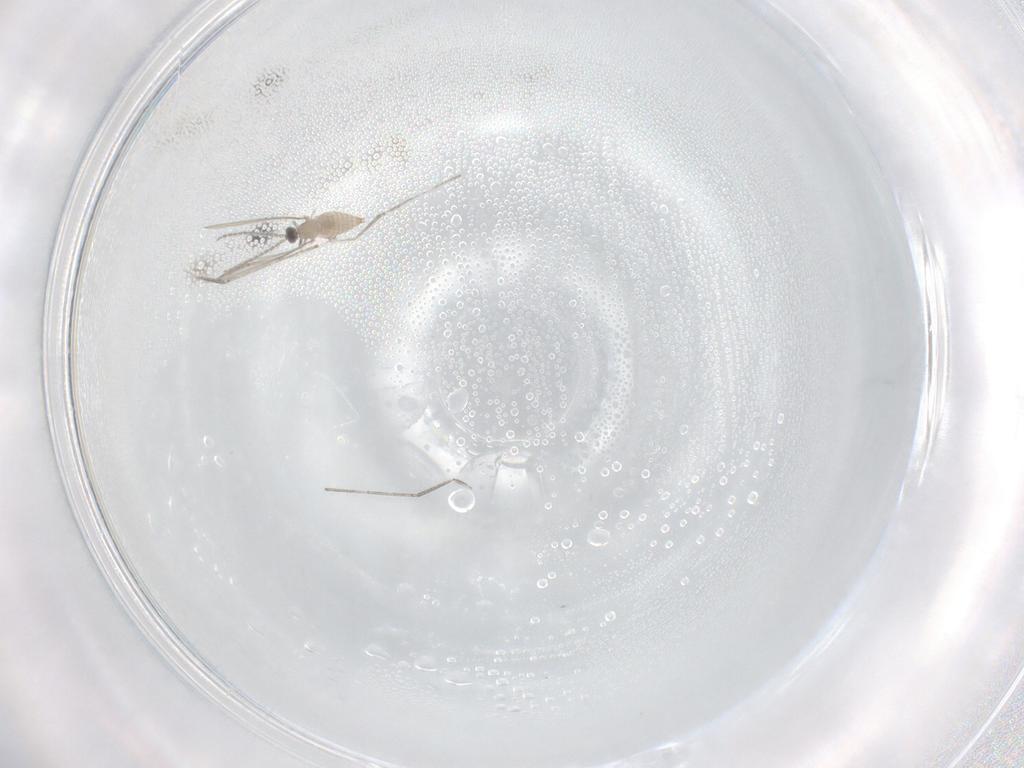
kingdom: Animalia
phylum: Arthropoda
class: Insecta
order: Diptera
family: Cecidomyiidae
